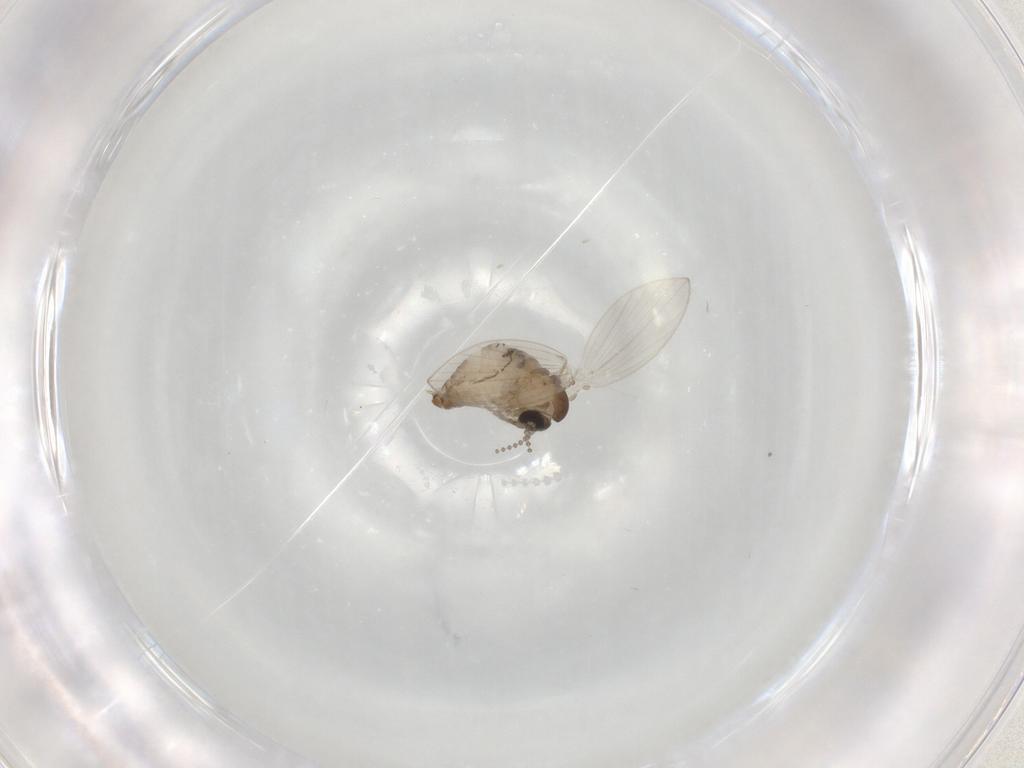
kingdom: Animalia
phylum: Arthropoda
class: Insecta
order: Diptera
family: Psychodidae
